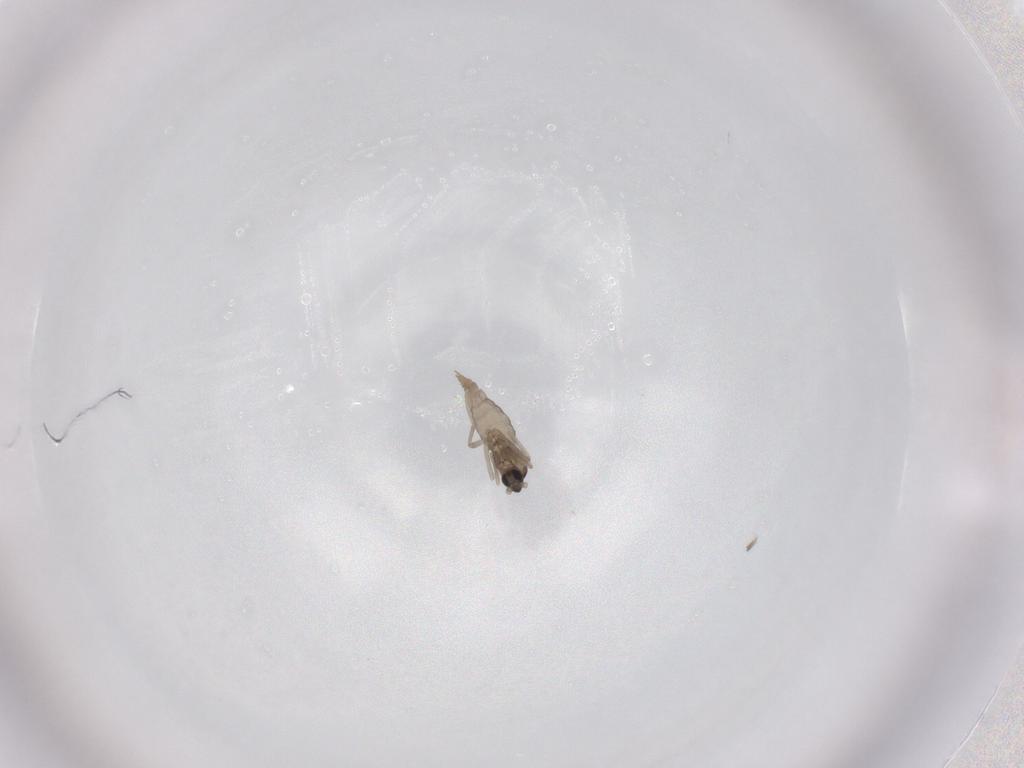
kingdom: Animalia
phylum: Arthropoda
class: Insecta
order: Diptera
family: Cecidomyiidae
